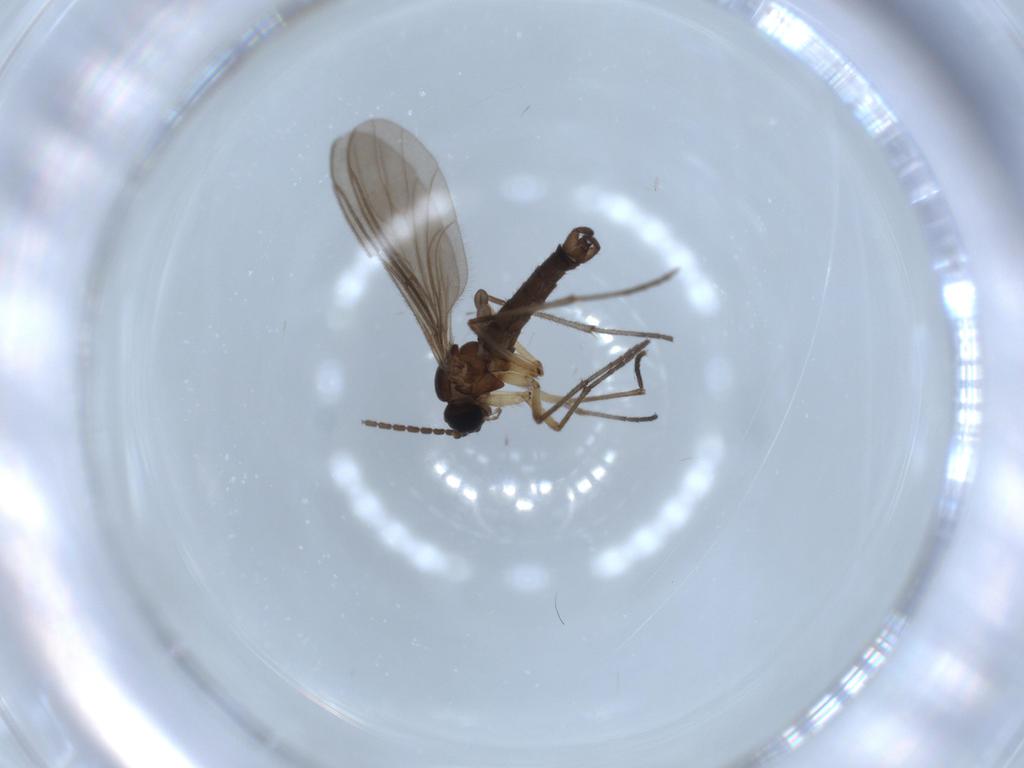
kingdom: Animalia
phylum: Arthropoda
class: Insecta
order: Diptera
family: Sciaridae
